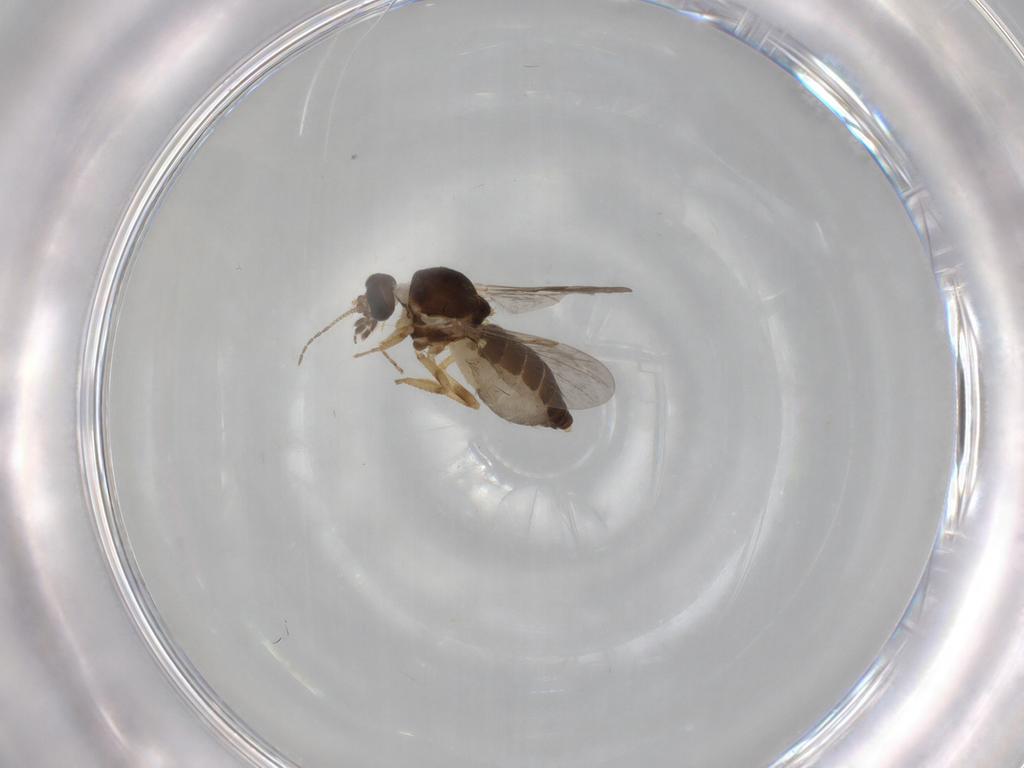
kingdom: Animalia
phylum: Arthropoda
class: Insecta
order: Diptera
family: Ceratopogonidae
